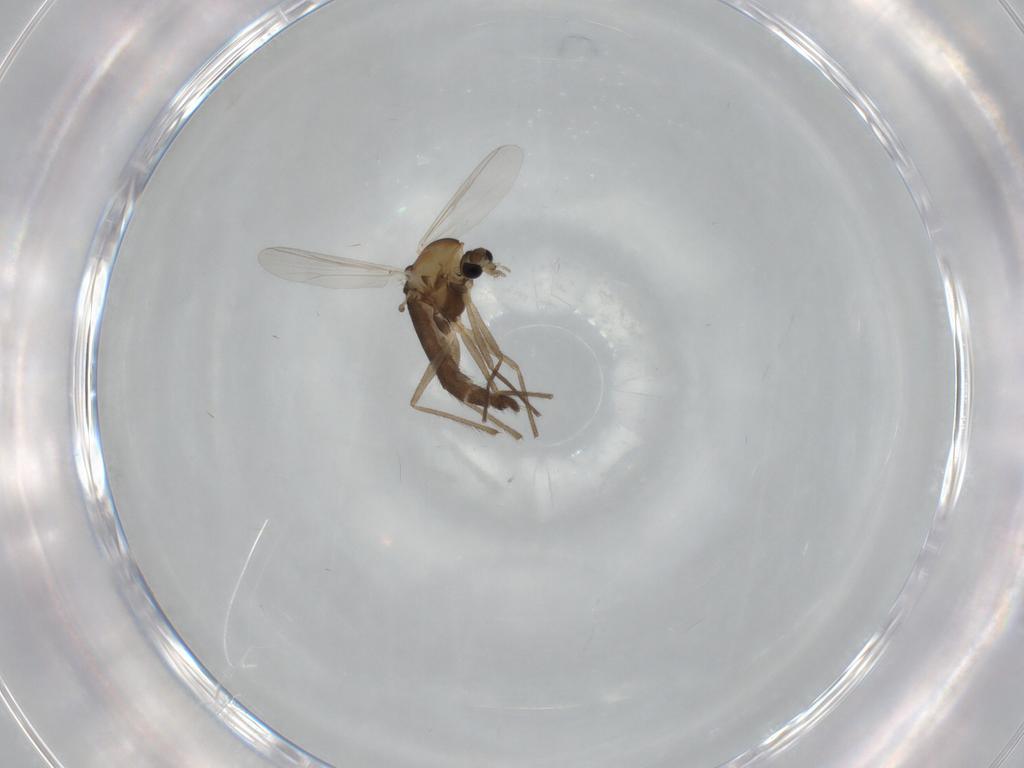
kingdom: Animalia
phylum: Arthropoda
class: Insecta
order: Diptera
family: Chironomidae
